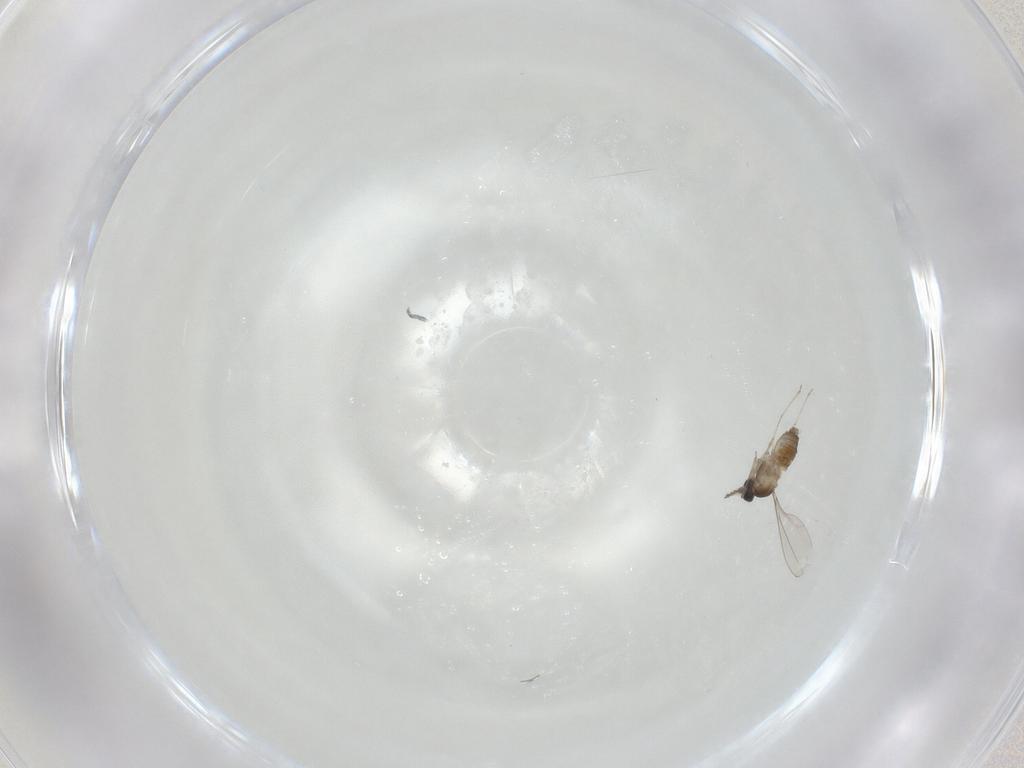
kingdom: Animalia
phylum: Arthropoda
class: Insecta
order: Diptera
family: Cecidomyiidae
